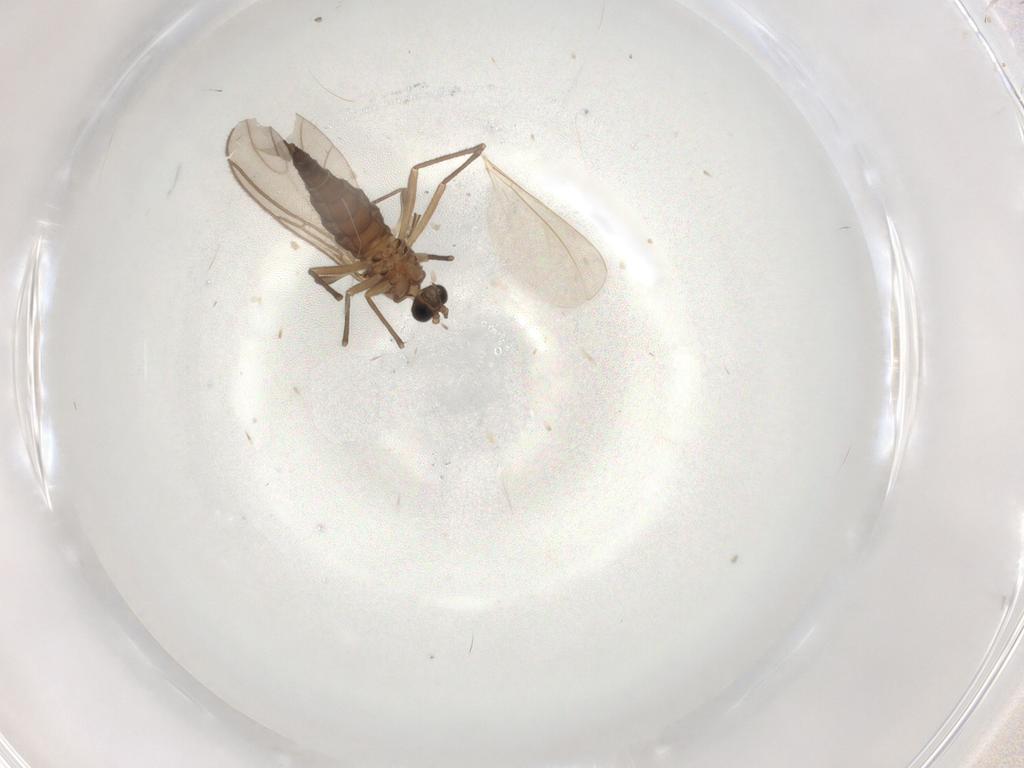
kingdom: Animalia
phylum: Arthropoda
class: Insecta
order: Diptera
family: Sciaridae
